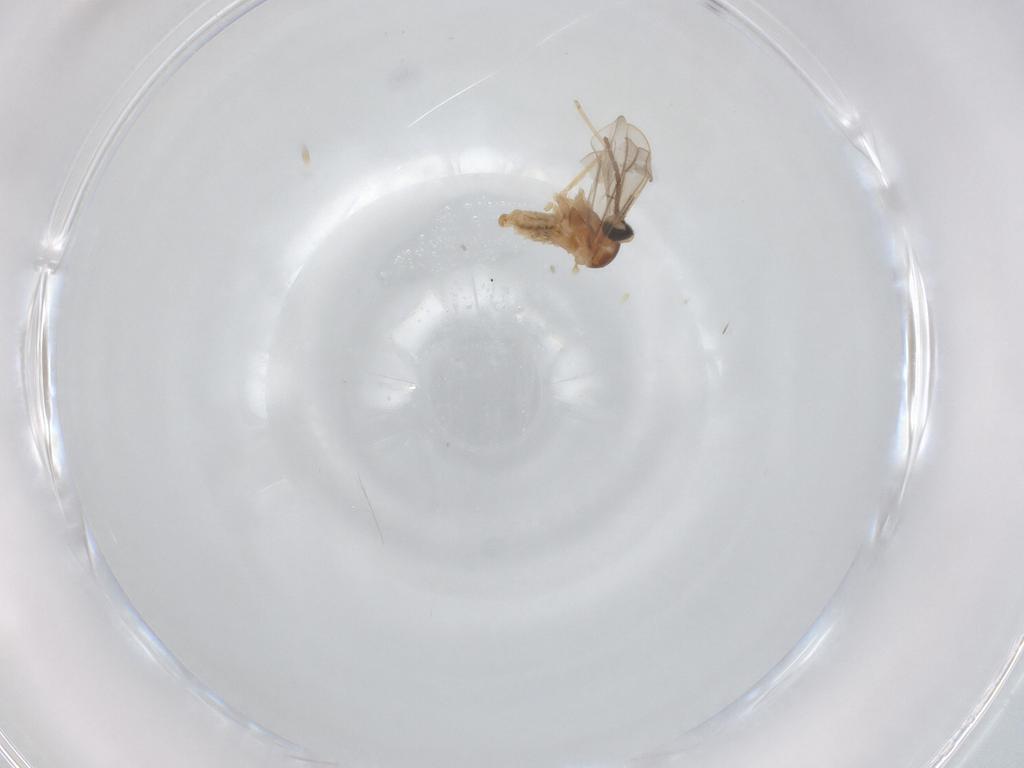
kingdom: Animalia
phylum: Arthropoda
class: Insecta
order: Diptera
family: Cecidomyiidae
